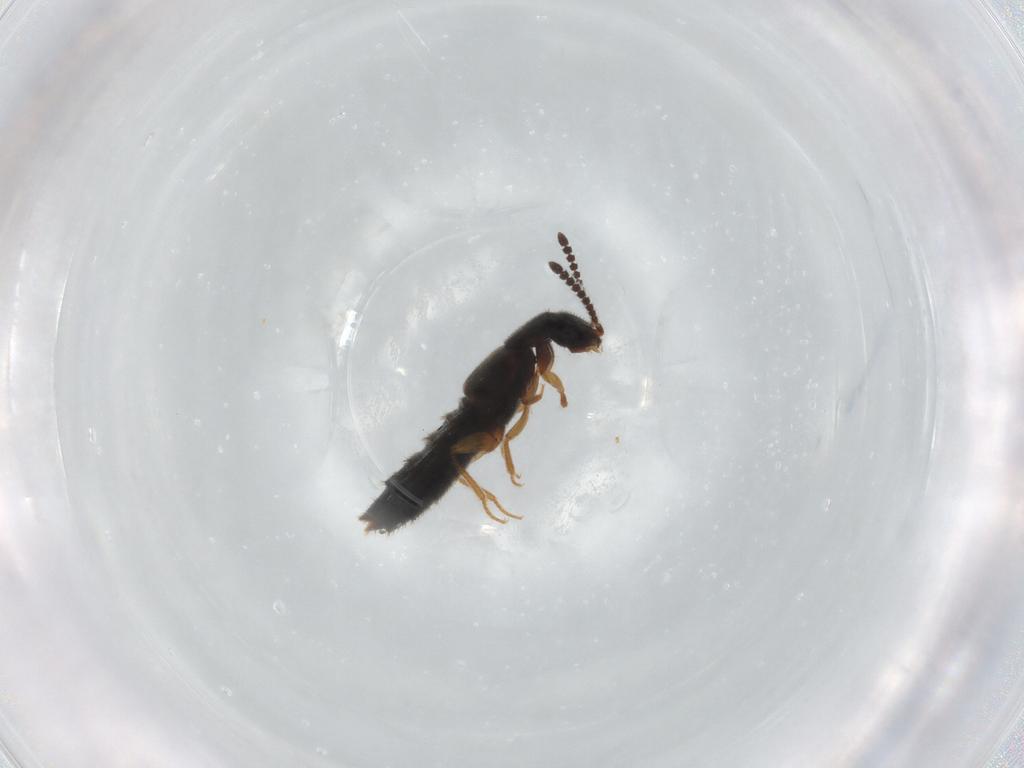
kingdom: Animalia
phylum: Arthropoda
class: Insecta
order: Coleoptera
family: Staphylinidae
